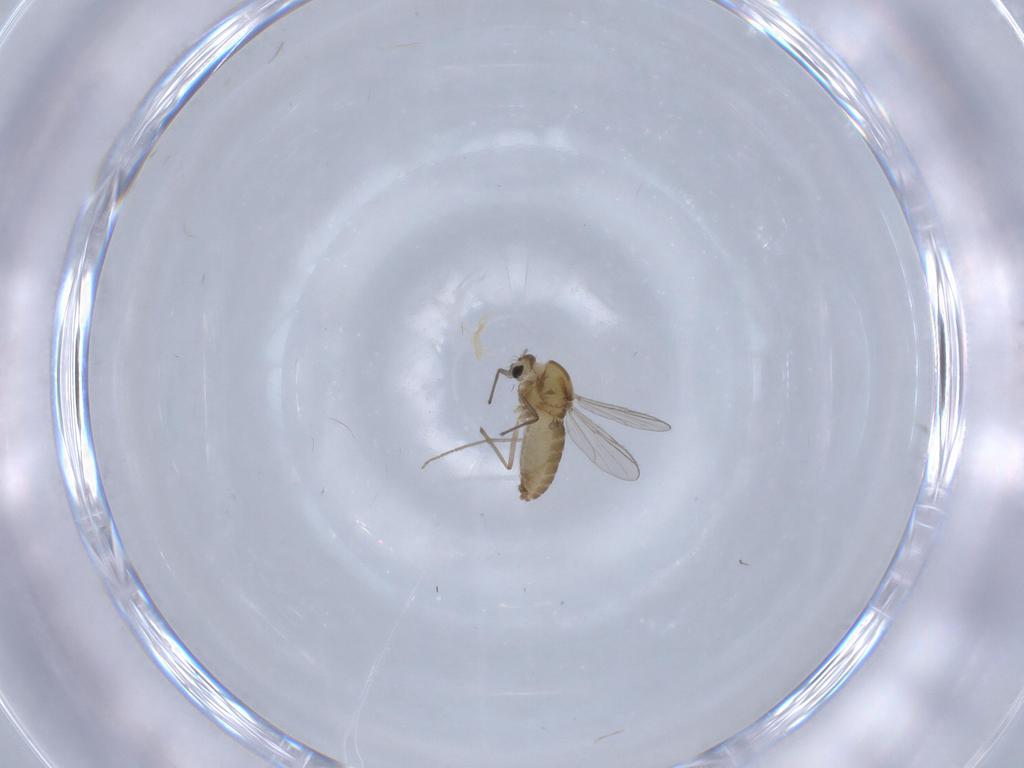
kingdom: Animalia
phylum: Arthropoda
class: Insecta
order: Diptera
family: Chironomidae
